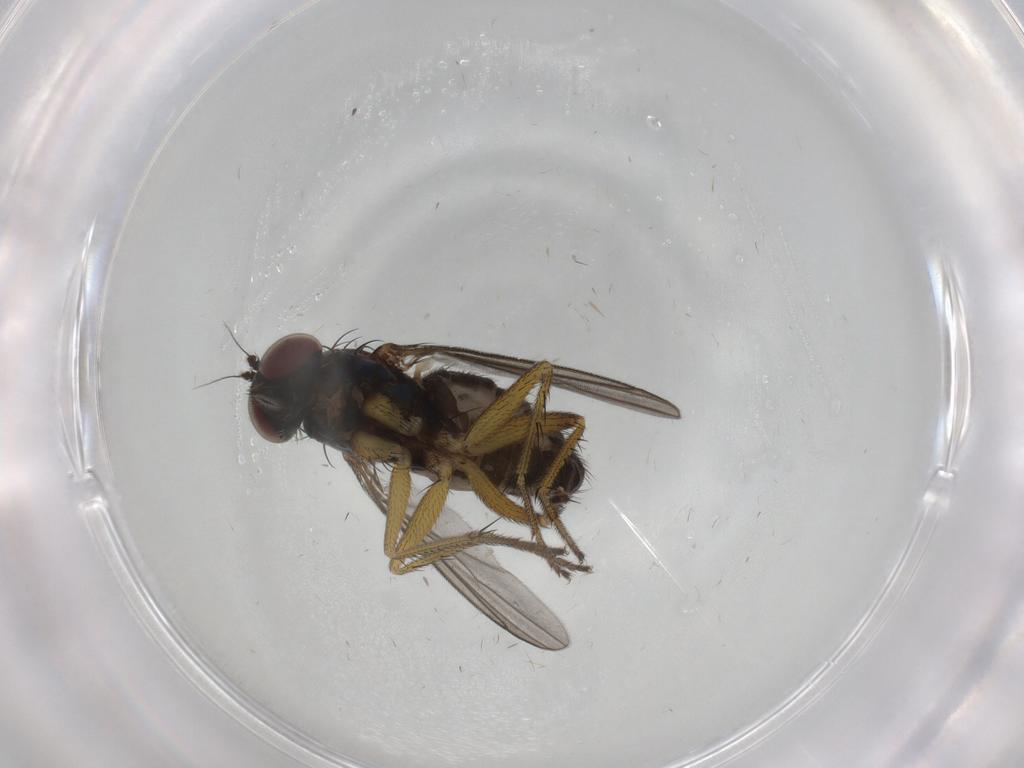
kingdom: Animalia
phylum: Arthropoda
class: Insecta
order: Diptera
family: Dolichopodidae
